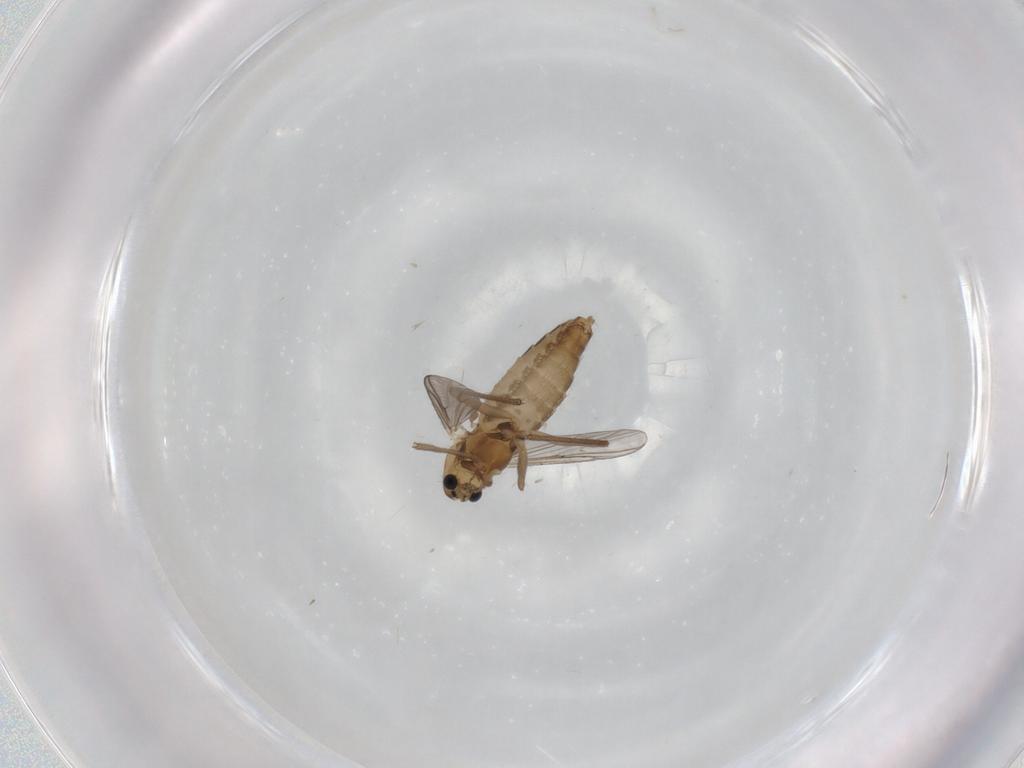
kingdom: Animalia
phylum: Arthropoda
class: Insecta
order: Diptera
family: Chironomidae
